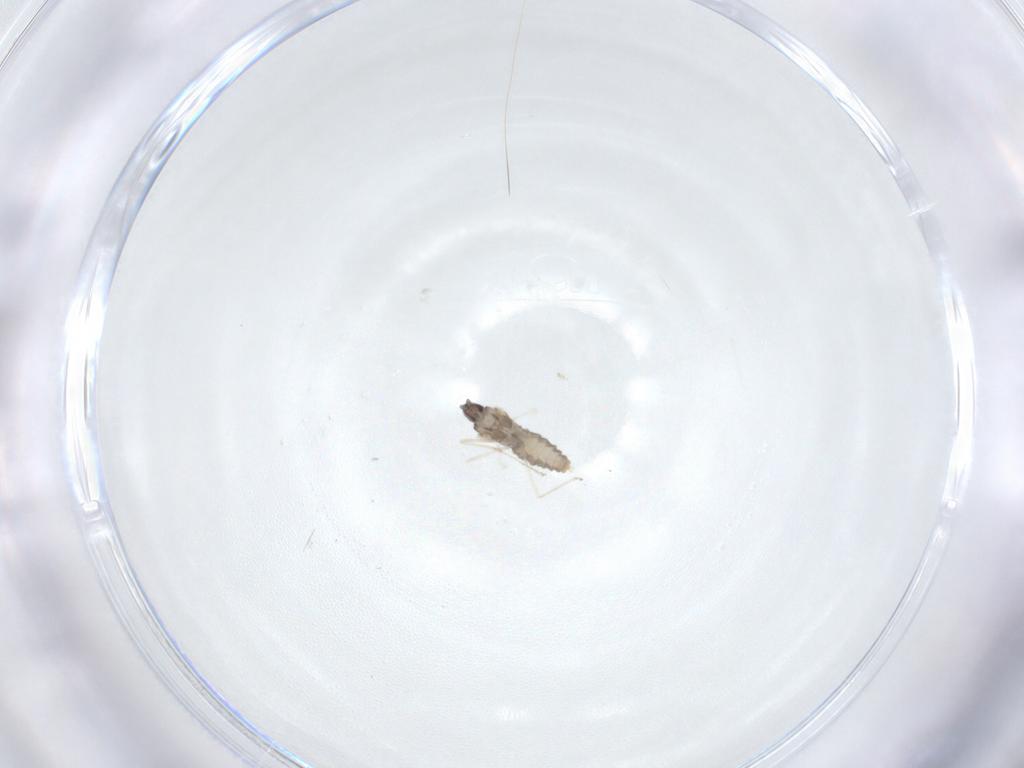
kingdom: Animalia
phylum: Arthropoda
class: Insecta
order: Diptera
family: Cecidomyiidae
